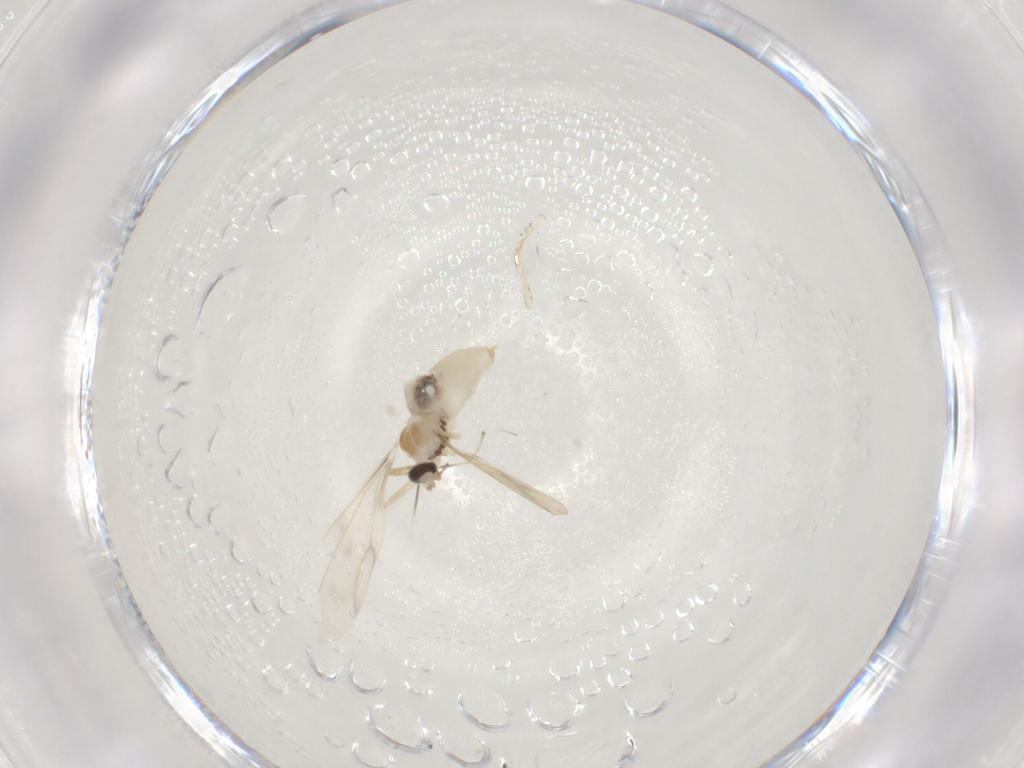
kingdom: Animalia
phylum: Arthropoda
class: Insecta
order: Diptera
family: Cecidomyiidae
